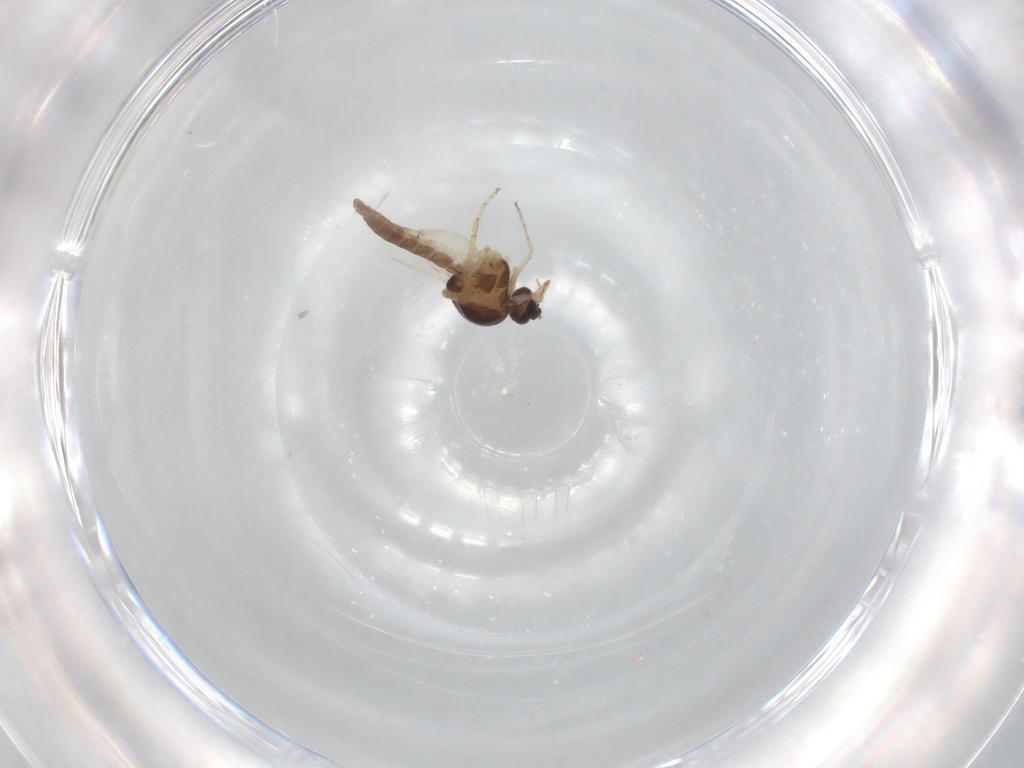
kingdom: Animalia
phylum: Arthropoda
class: Insecta
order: Diptera
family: Ceratopogonidae
